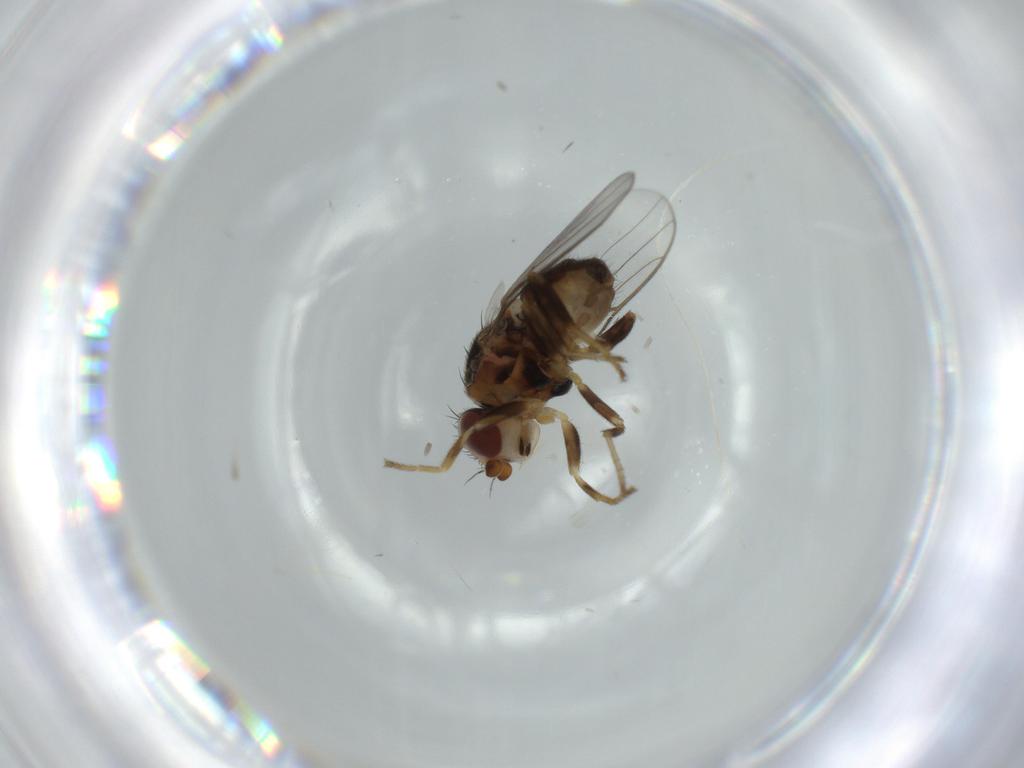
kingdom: Animalia
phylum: Arthropoda
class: Insecta
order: Diptera
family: Chloropidae
